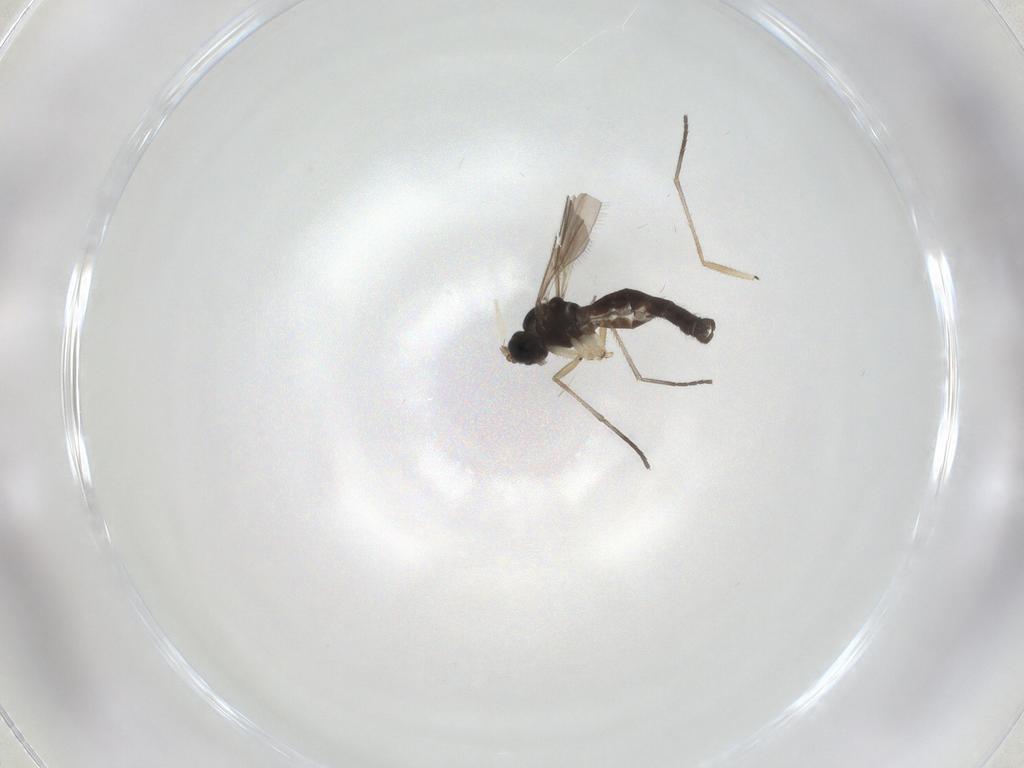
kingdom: Animalia
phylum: Arthropoda
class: Insecta
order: Diptera
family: Sciaridae
